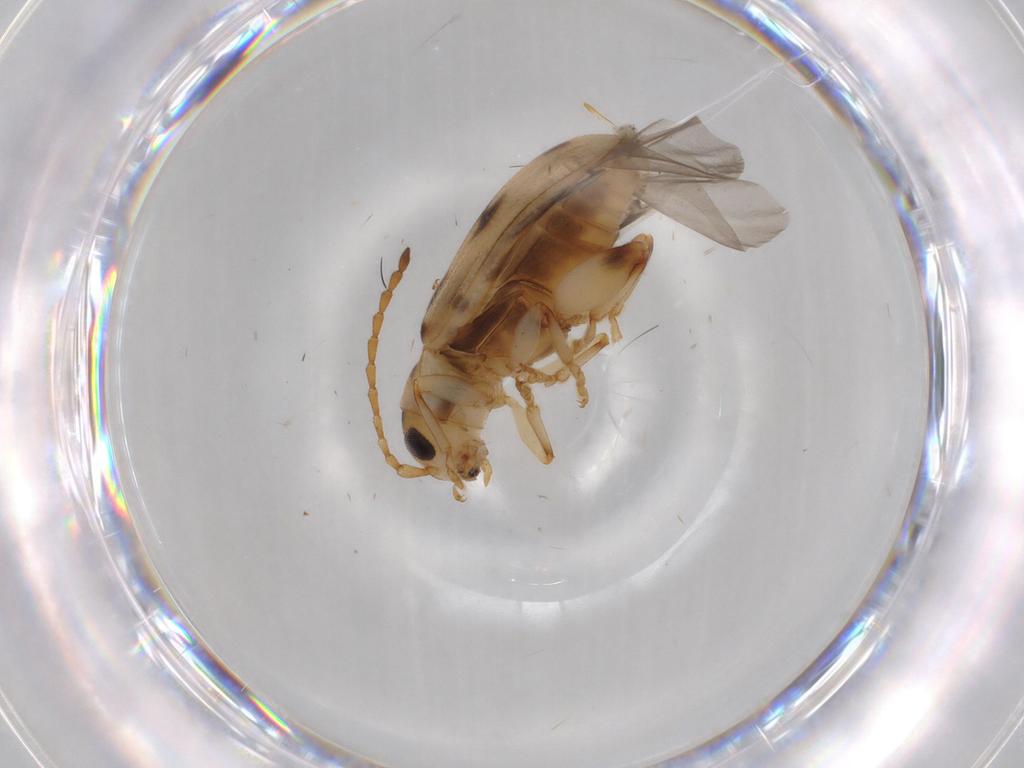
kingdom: Animalia
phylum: Arthropoda
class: Insecta
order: Coleoptera
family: Chrysomelidae
